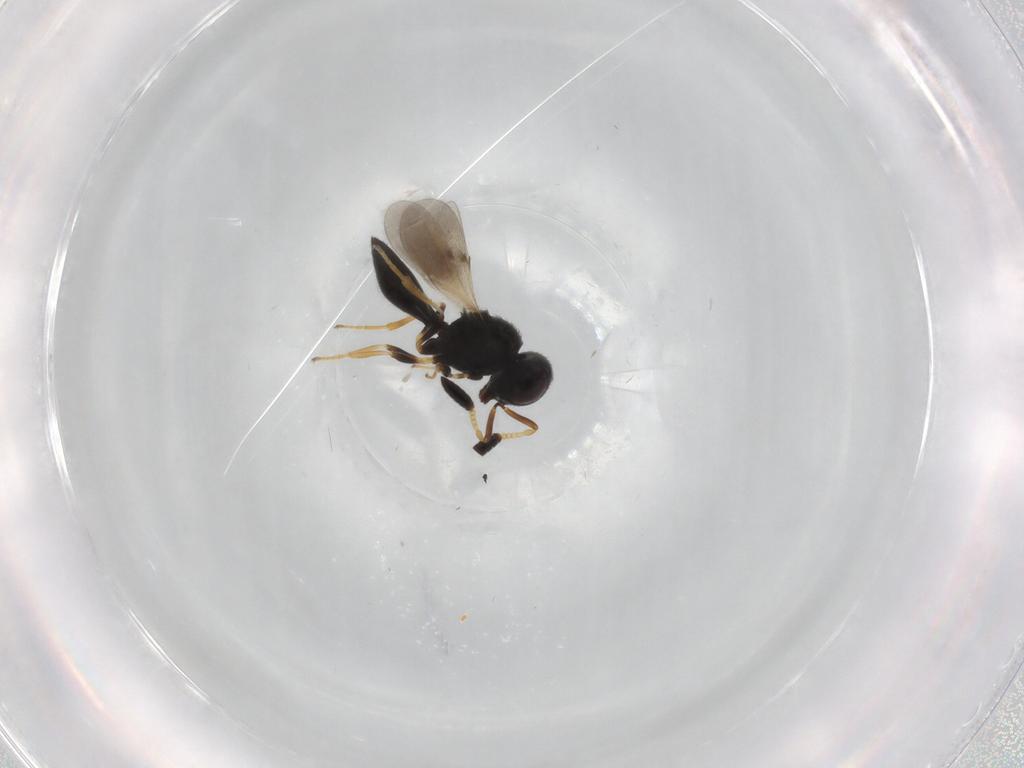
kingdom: Animalia
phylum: Arthropoda
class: Insecta
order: Hymenoptera
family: Scelionidae
